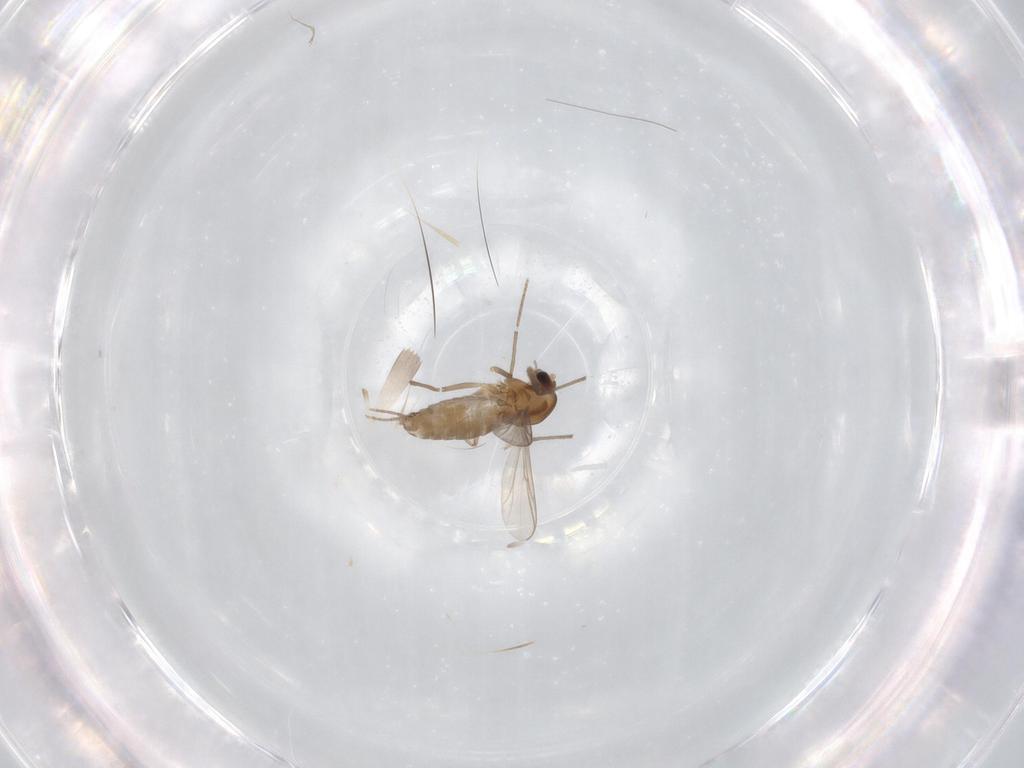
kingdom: Animalia
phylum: Arthropoda
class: Insecta
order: Diptera
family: Chironomidae
